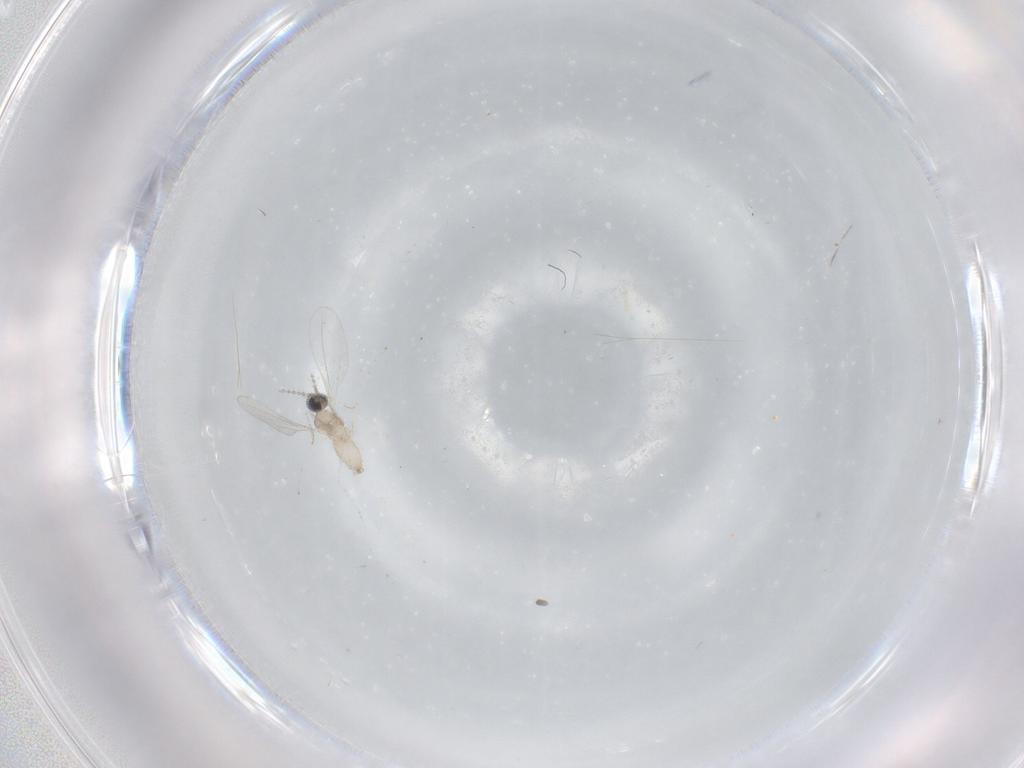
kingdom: Animalia
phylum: Arthropoda
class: Insecta
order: Diptera
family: Cecidomyiidae
